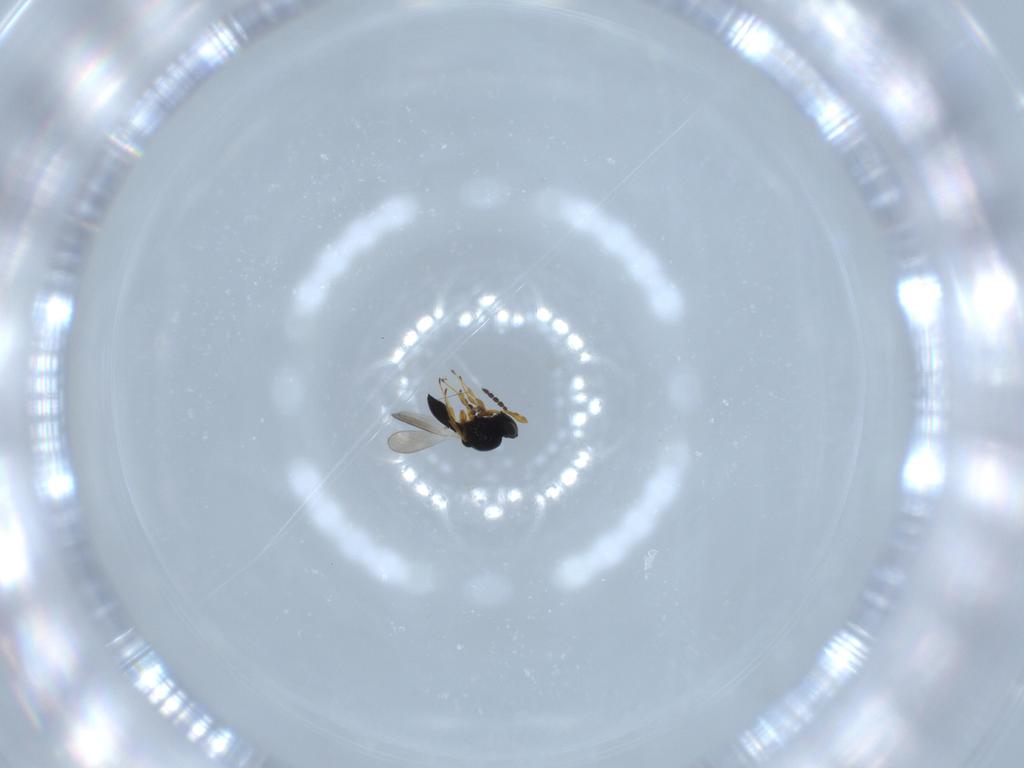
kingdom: Animalia
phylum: Arthropoda
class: Insecta
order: Hymenoptera
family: Platygastridae
